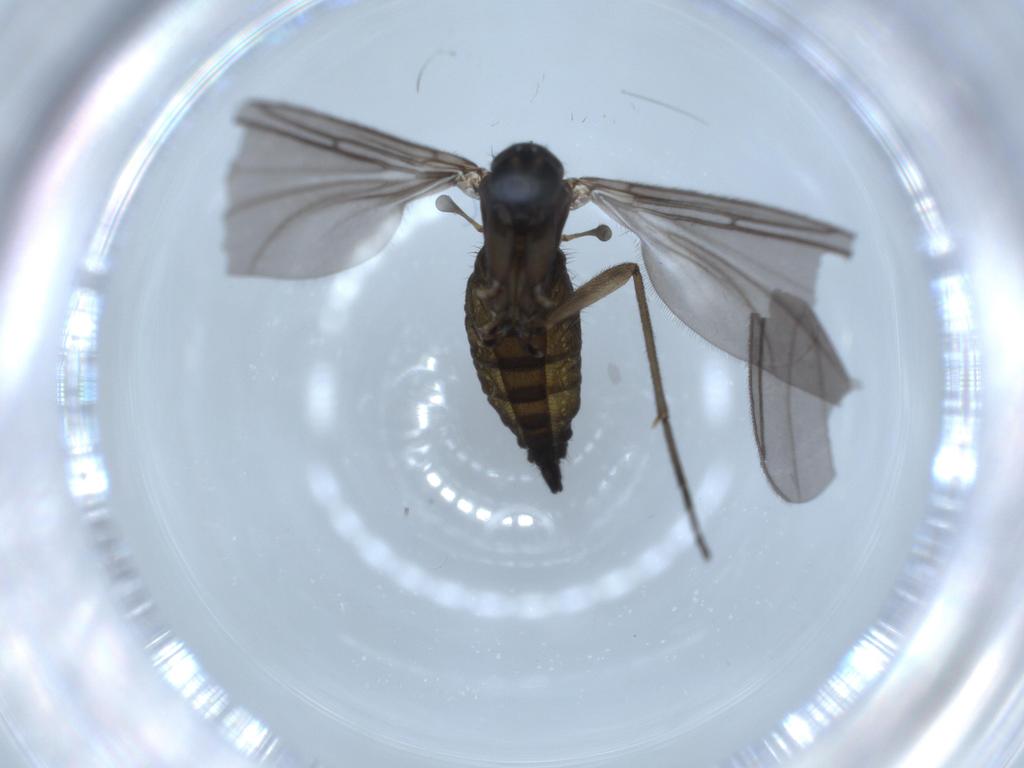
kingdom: Animalia
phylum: Arthropoda
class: Insecta
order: Diptera
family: Sciaridae
